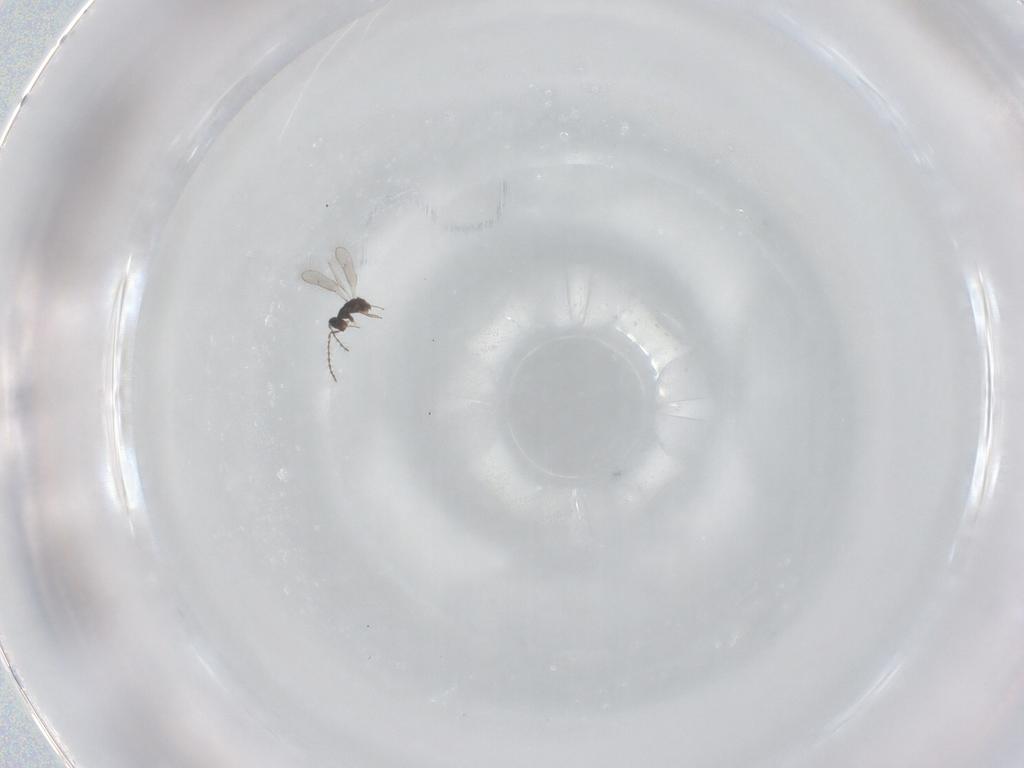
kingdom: Animalia
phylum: Arthropoda
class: Insecta
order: Hymenoptera
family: Pteromalidae
